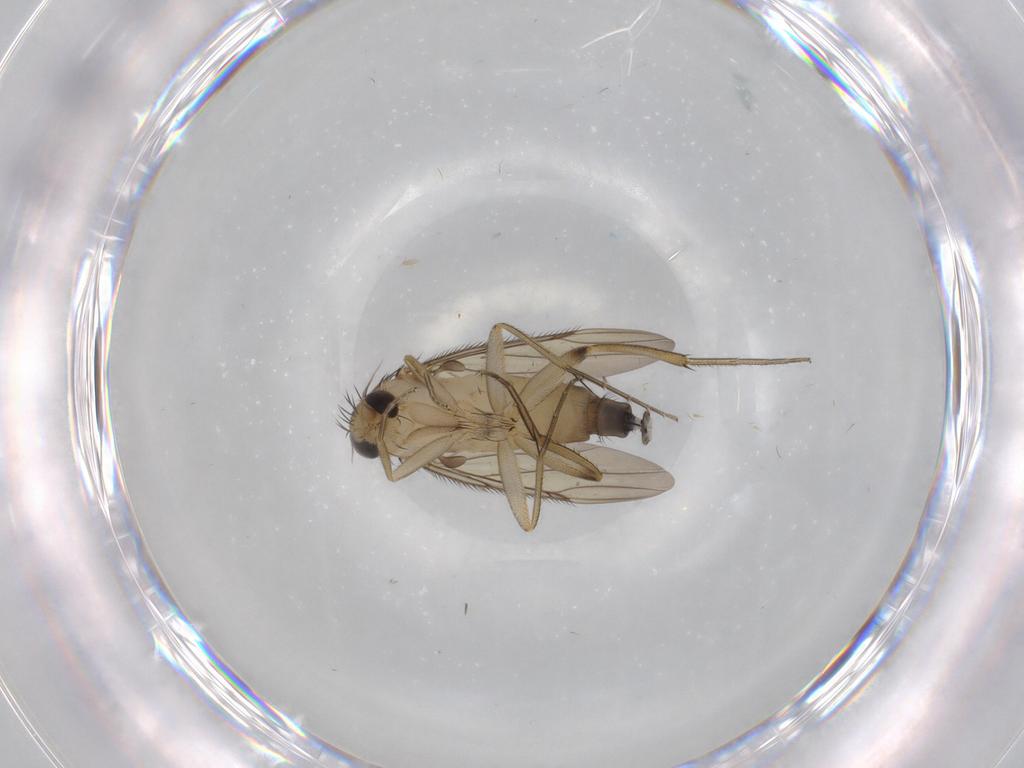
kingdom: Animalia
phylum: Arthropoda
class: Insecta
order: Diptera
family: Phoridae
